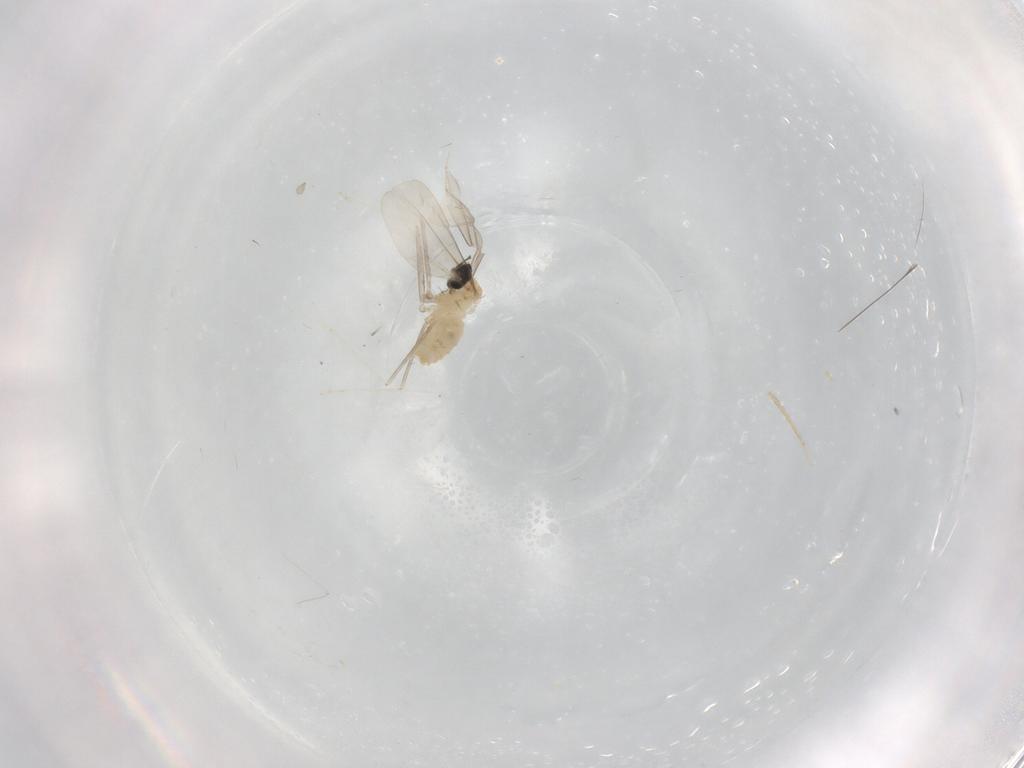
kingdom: Animalia
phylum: Arthropoda
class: Insecta
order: Diptera
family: Cecidomyiidae
